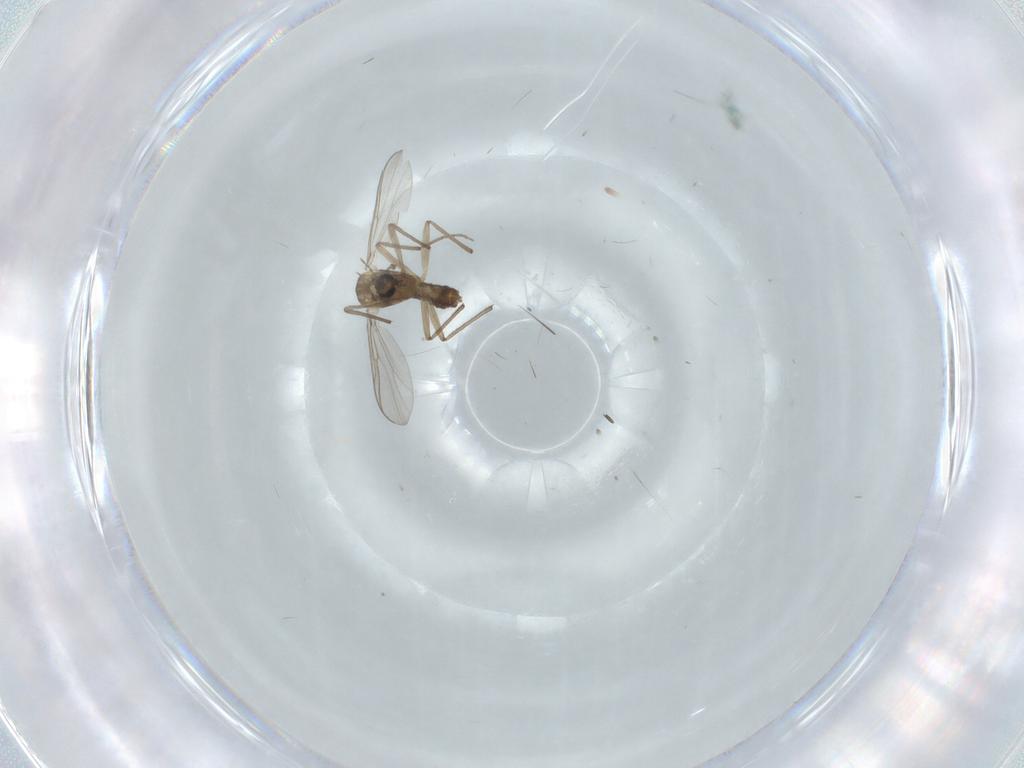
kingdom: Animalia
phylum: Arthropoda
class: Insecta
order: Diptera
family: Chironomidae
